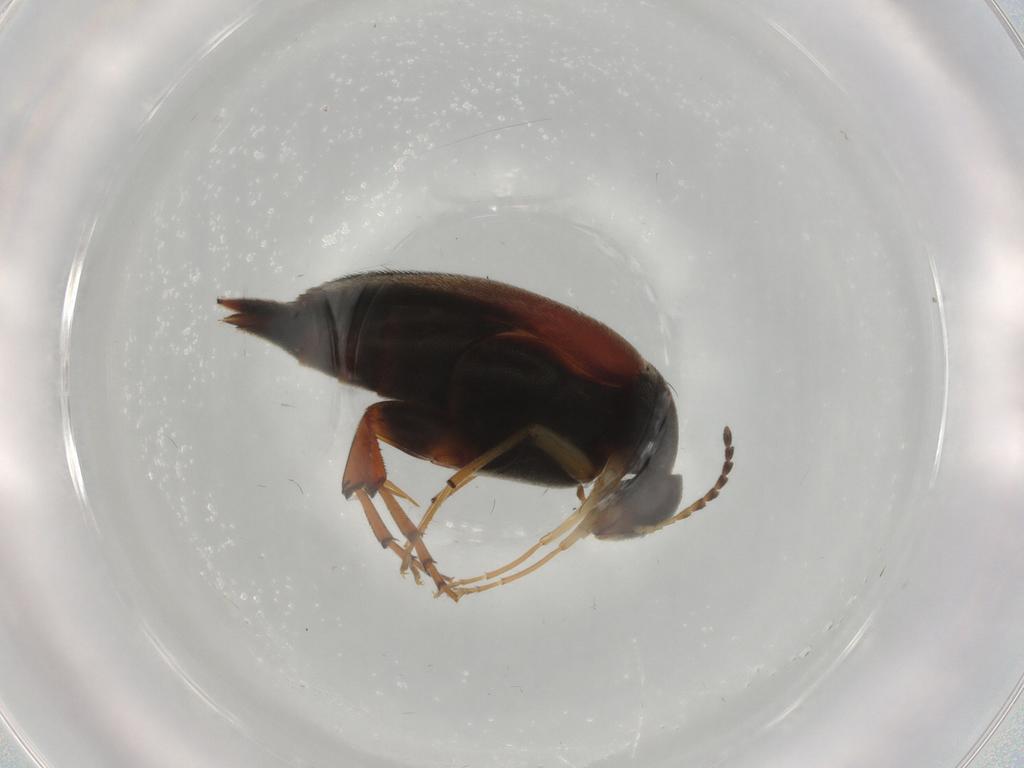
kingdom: Animalia
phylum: Arthropoda
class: Insecta
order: Coleoptera
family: Mordellidae
